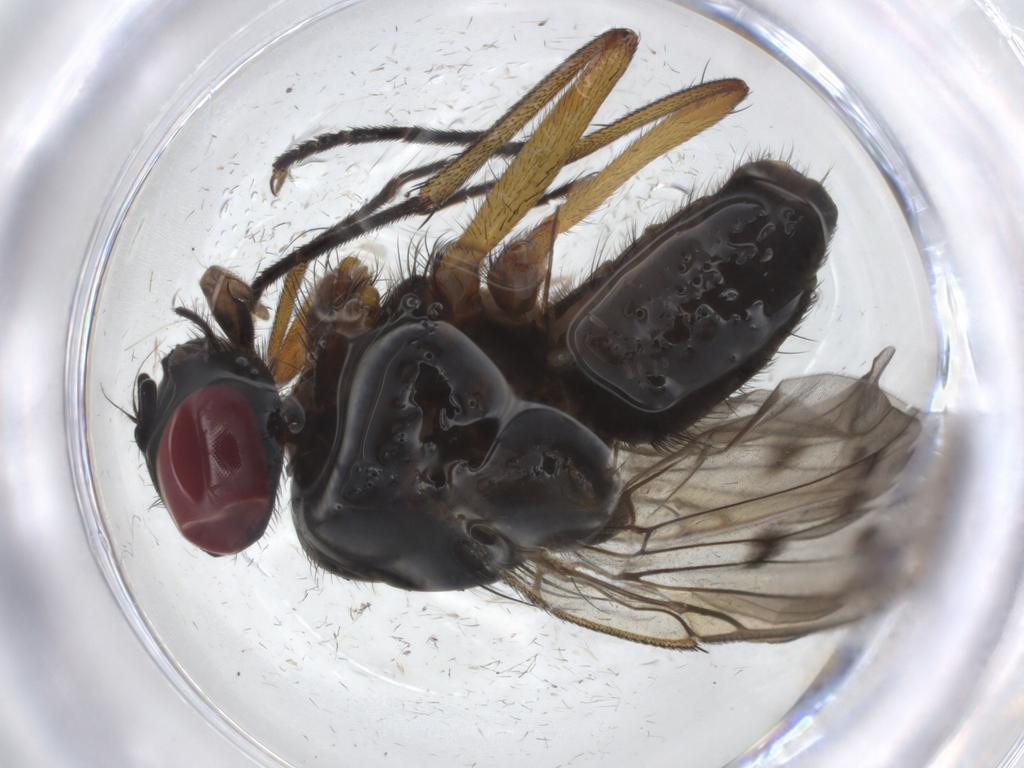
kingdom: Animalia
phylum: Arthropoda
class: Insecta
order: Diptera
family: Muscidae
